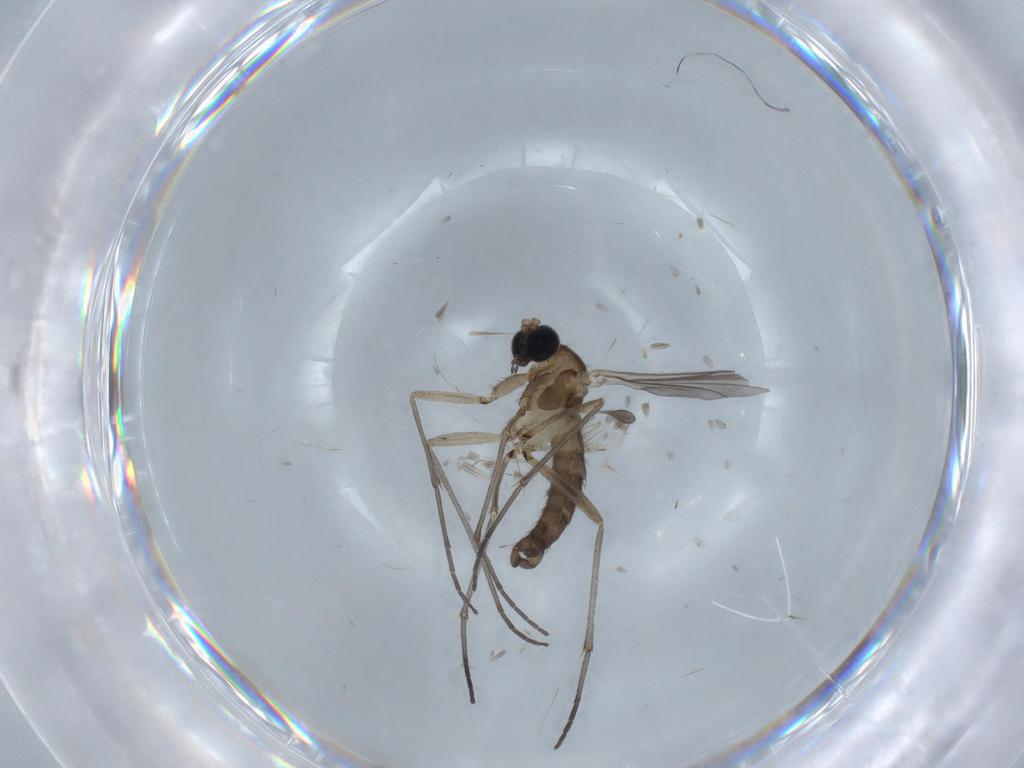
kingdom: Animalia
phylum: Arthropoda
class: Insecta
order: Diptera
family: Sciaridae
